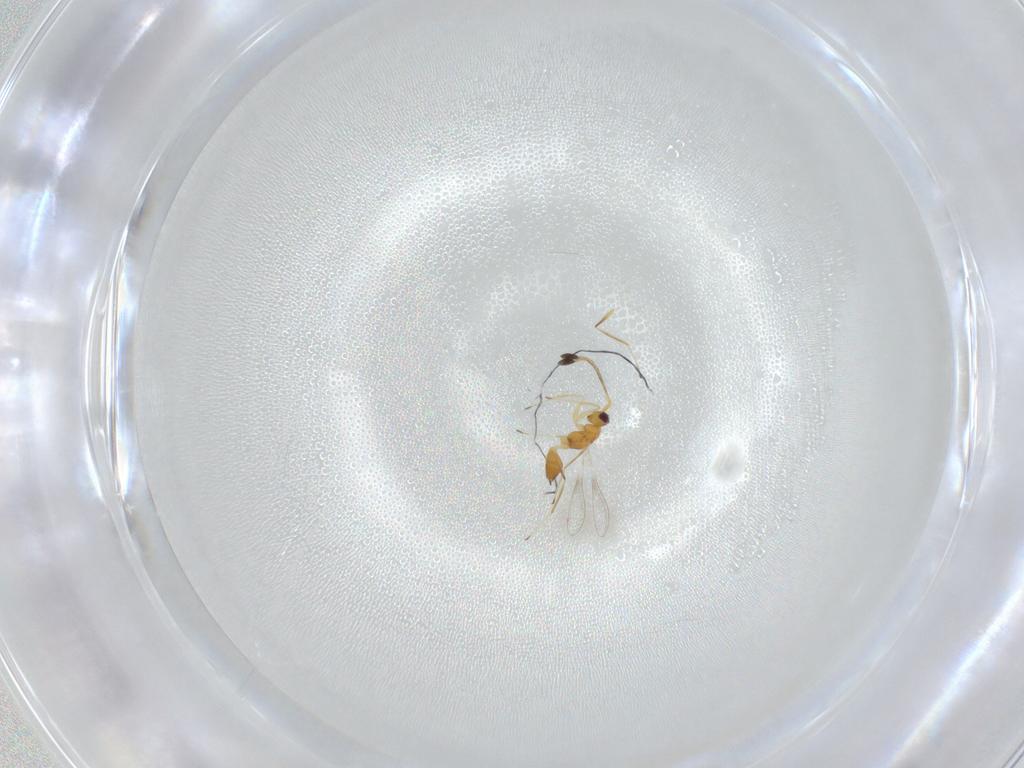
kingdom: Animalia
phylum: Arthropoda
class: Insecta
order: Hymenoptera
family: Mymaridae
